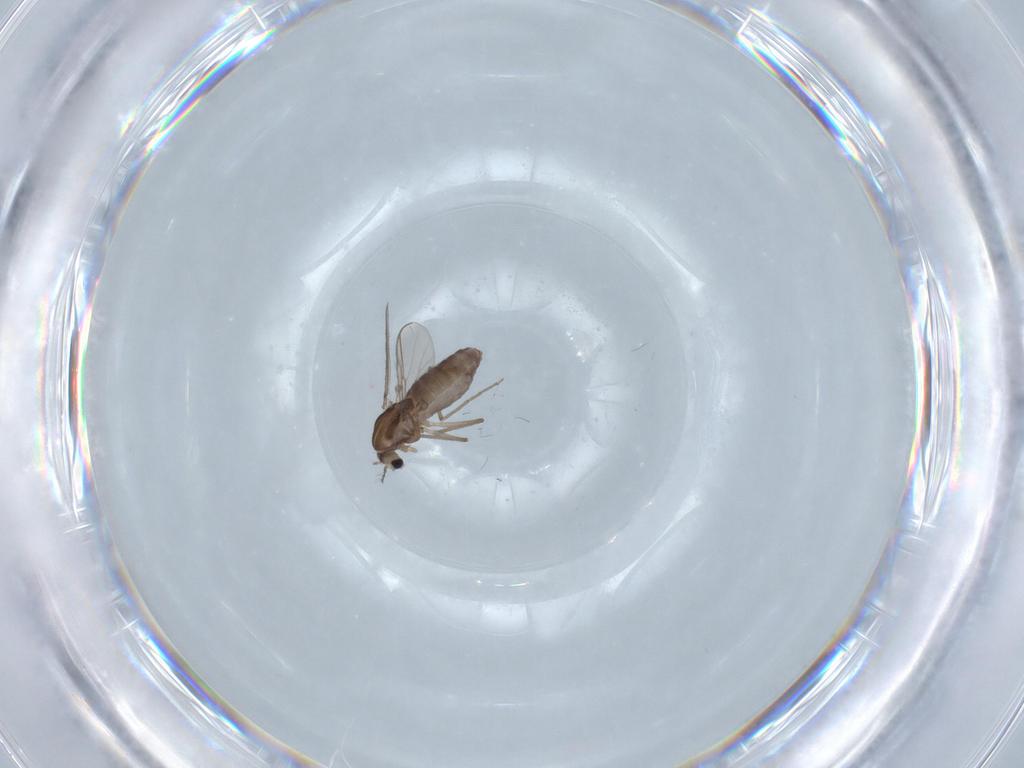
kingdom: Animalia
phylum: Arthropoda
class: Insecta
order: Diptera
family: Chironomidae
